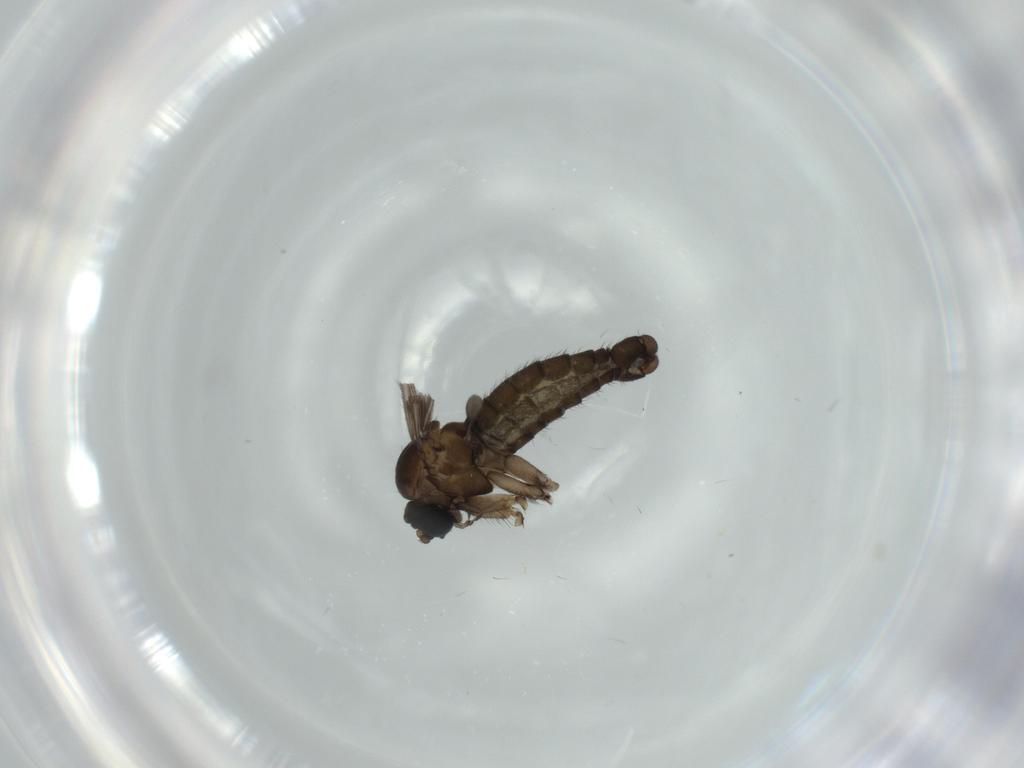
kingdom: Animalia
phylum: Arthropoda
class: Insecta
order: Diptera
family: Sciaridae
